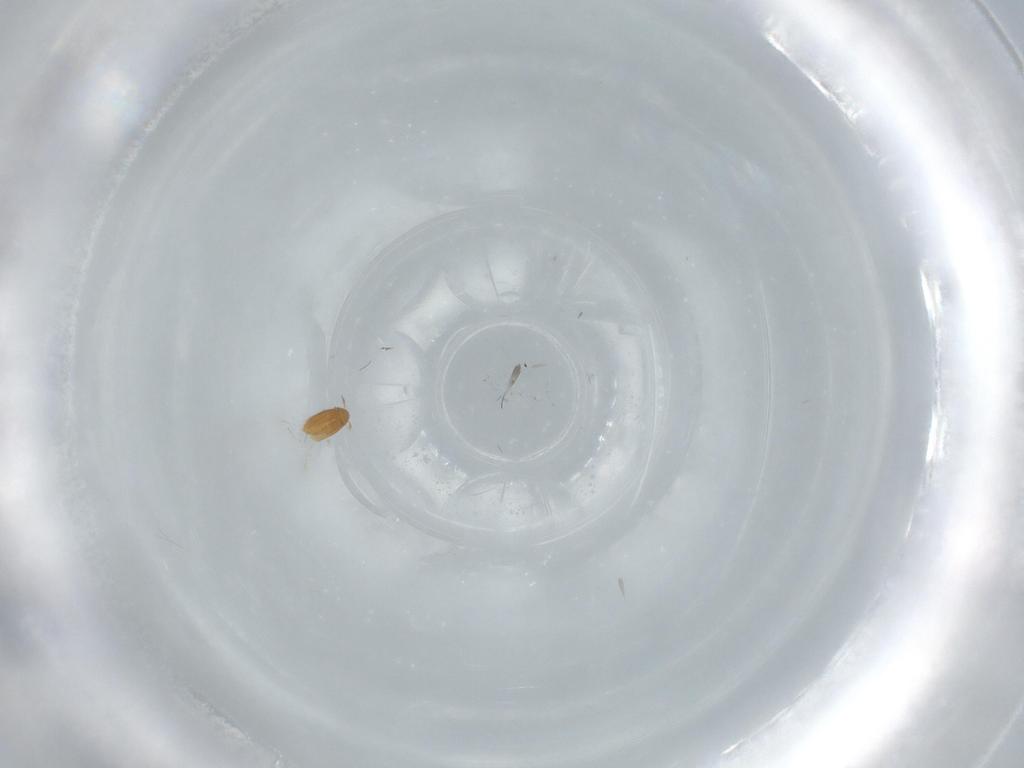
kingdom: Animalia
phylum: Arthropoda
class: Insecta
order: Coleoptera
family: Ptiliidae
